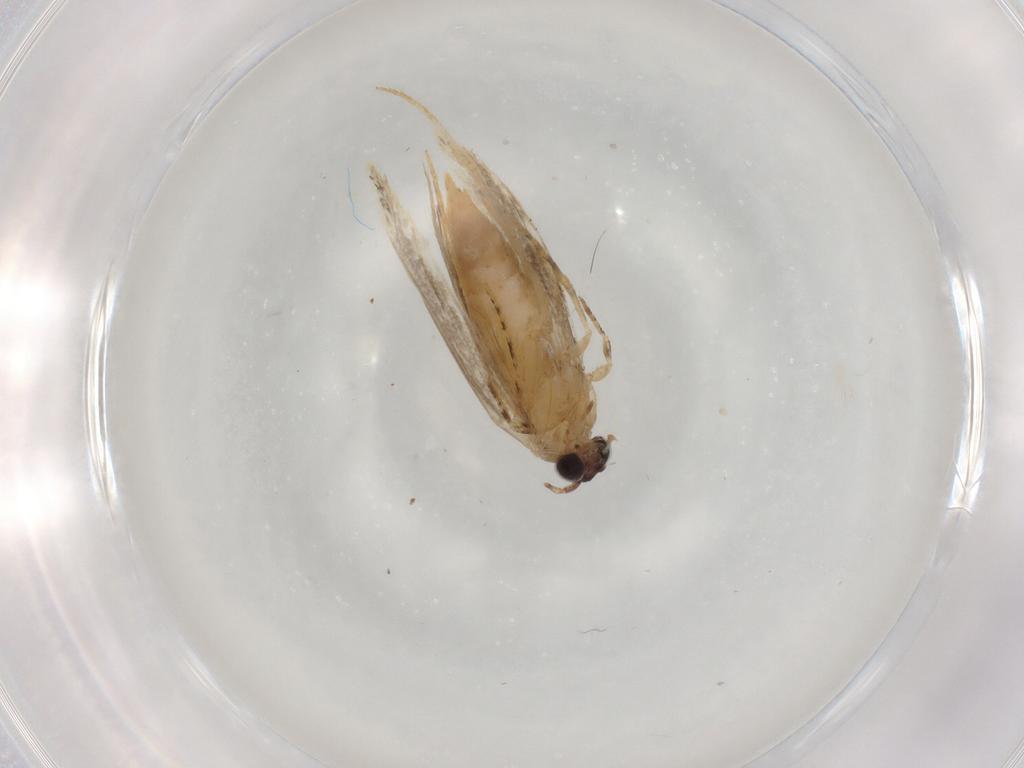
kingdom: Animalia
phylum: Arthropoda
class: Insecta
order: Lepidoptera
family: Tineidae
